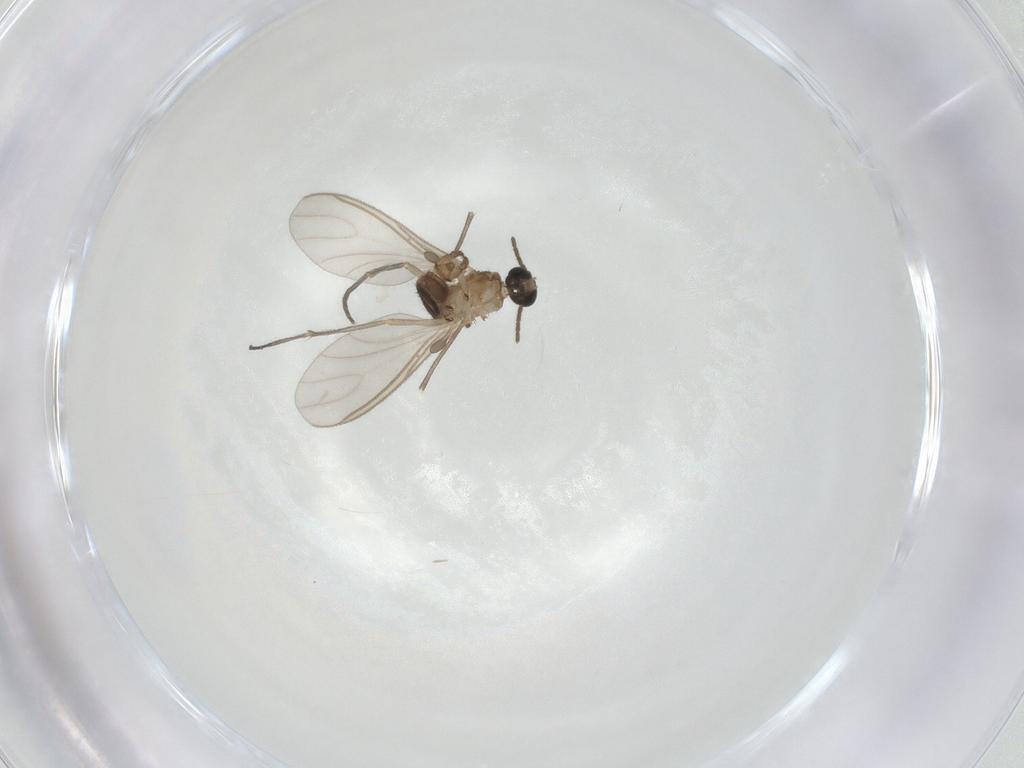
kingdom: Animalia
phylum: Arthropoda
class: Insecta
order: Diptera
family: Sciaridae
